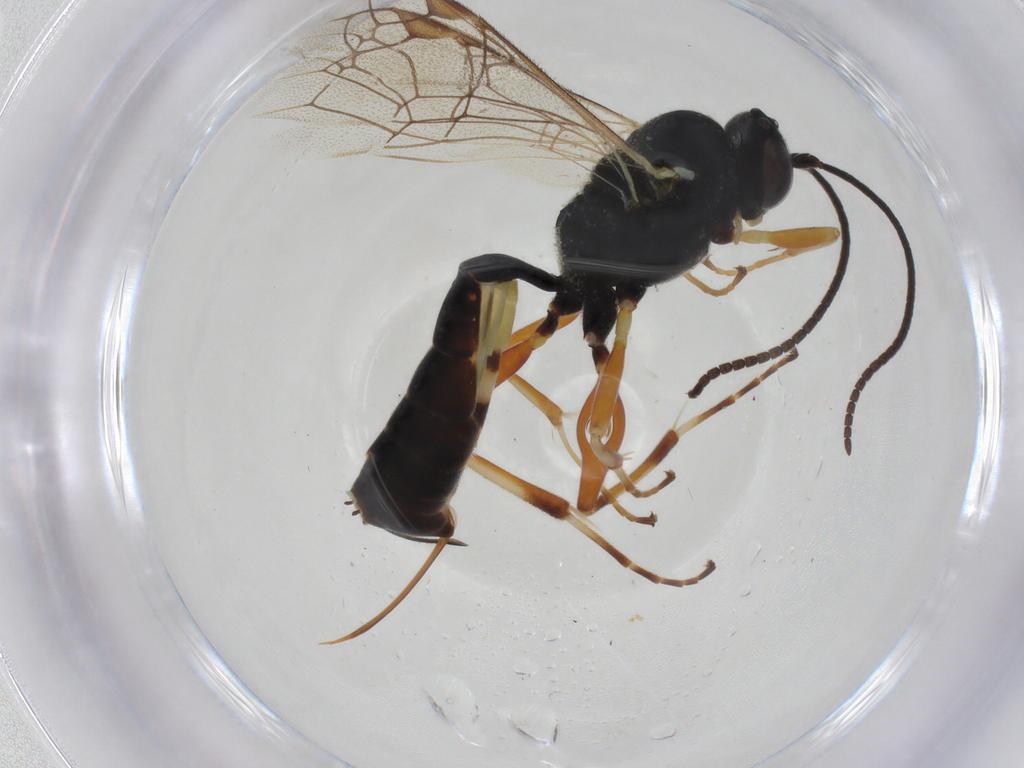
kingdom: Animalia
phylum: Arthropoda
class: Insecta
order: Hymenoptera
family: Ichneumonidae
